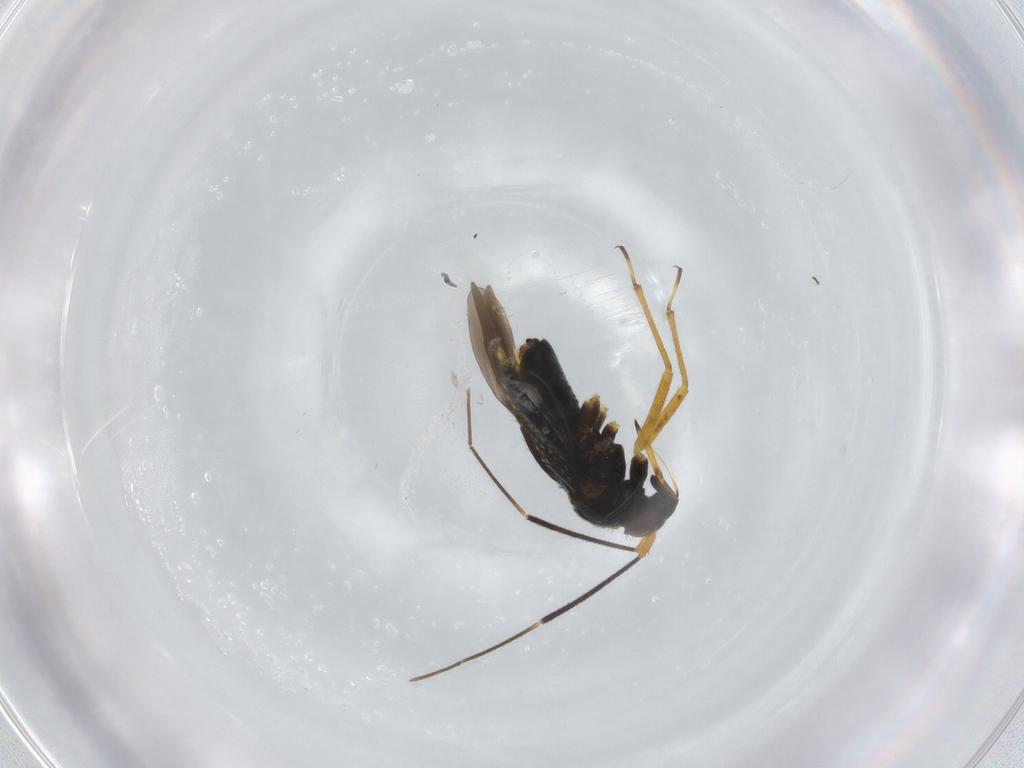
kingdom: Animalia
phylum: Arthropoda
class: Insecta
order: Hemiptera
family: Miridae
